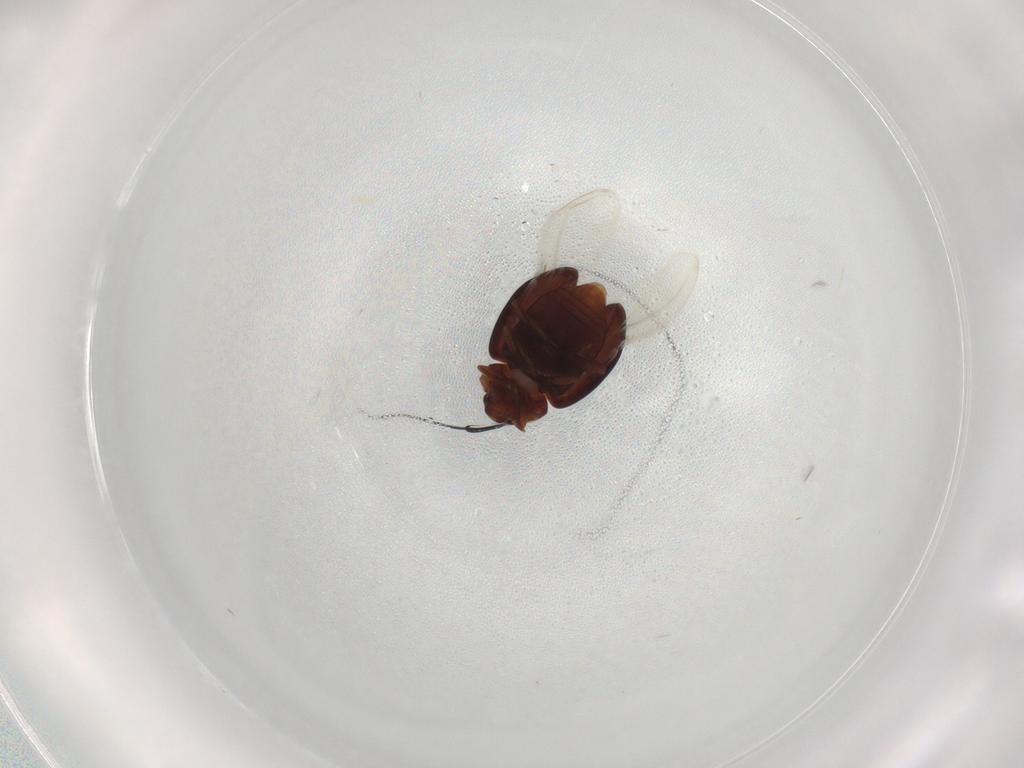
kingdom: Animalia
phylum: Arthropoda
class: Insecta
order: Coleoptera
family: Coccinellidae
